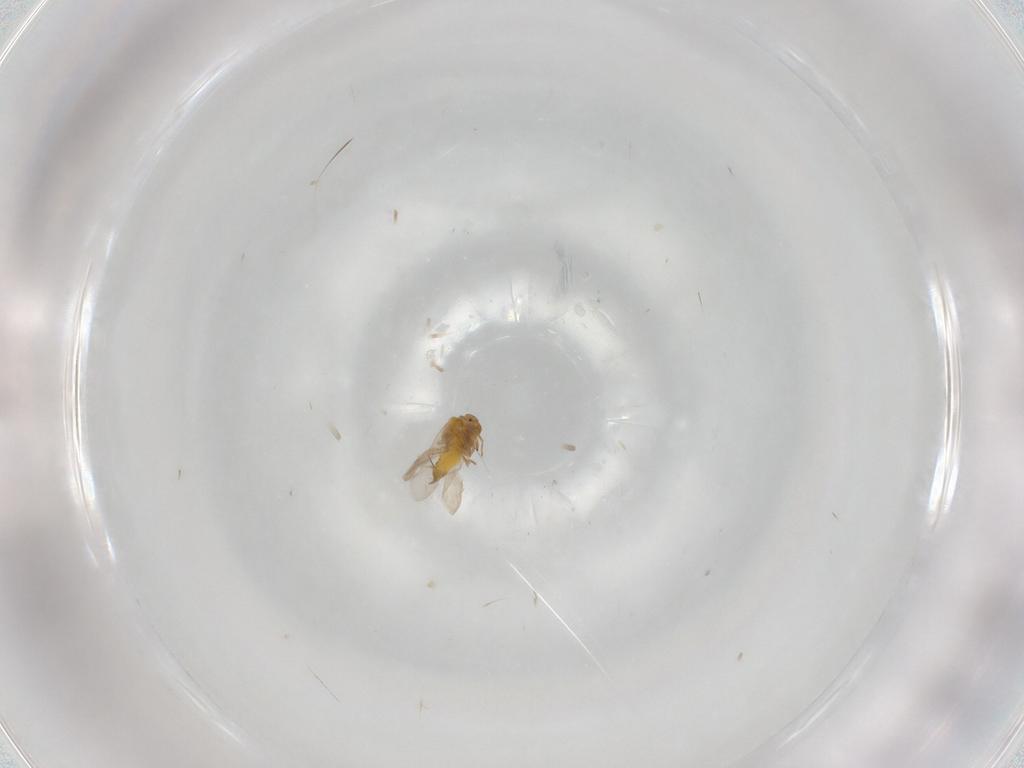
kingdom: Animalia
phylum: Arthropoda
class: Insecta
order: Hemiptera
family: Aleyrodidae
